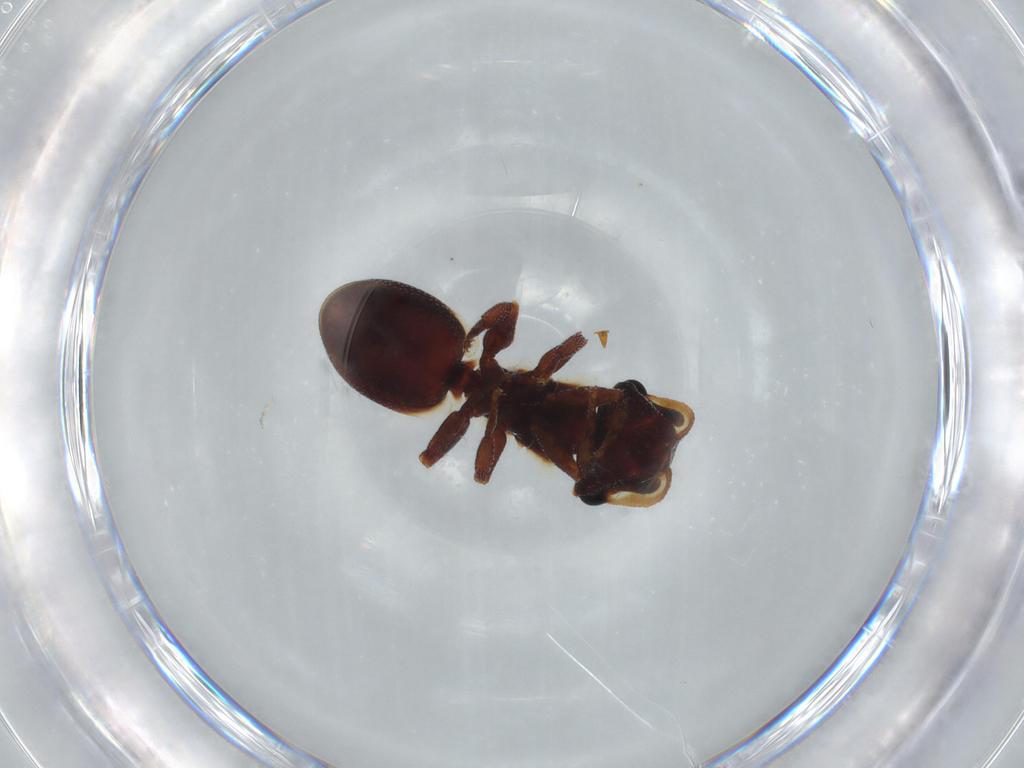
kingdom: Animalia
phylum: Arthropoda
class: Insecta
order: Hymenoptera
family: Formicidae
